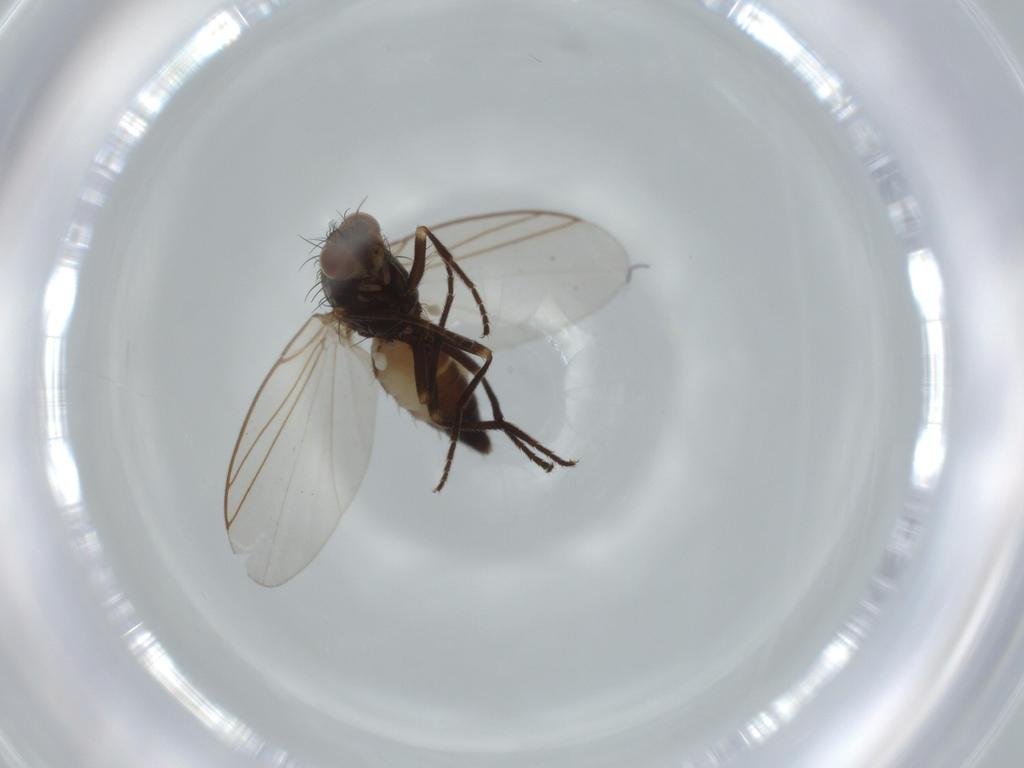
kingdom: Animalia
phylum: Arthropoda
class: Insecta
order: Diptera
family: Agromyzidae
